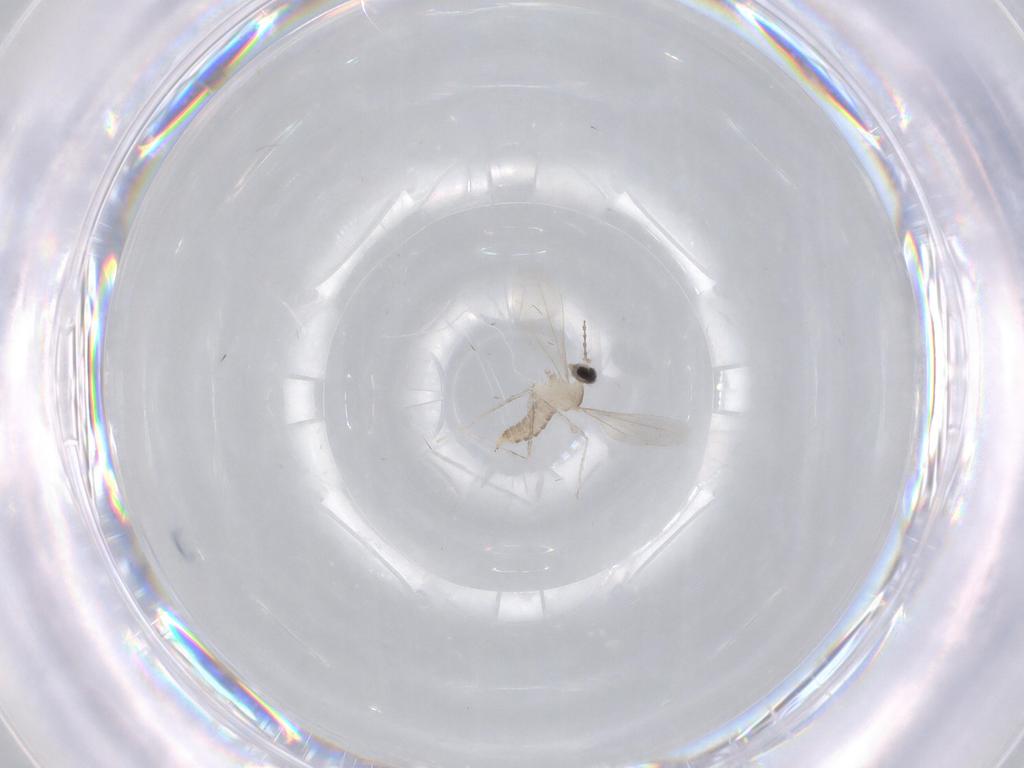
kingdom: Animalia
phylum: Arthropoda
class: Insecta
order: Diptera
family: Cecidomyiidae
